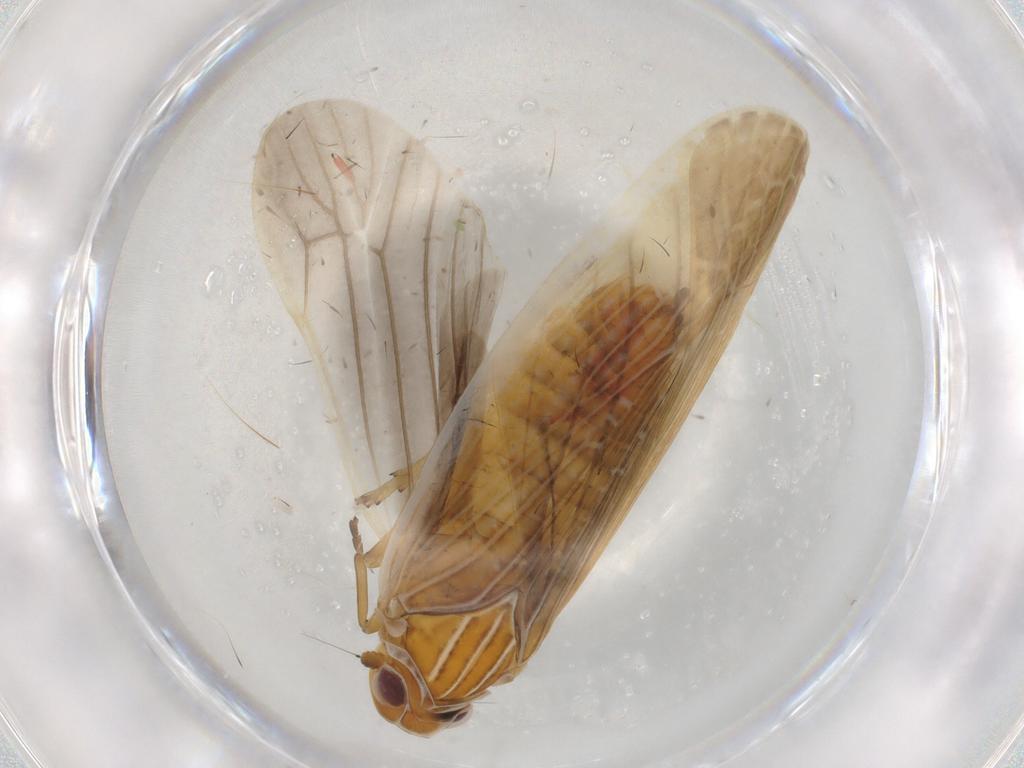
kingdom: Animalia
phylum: Arthropoda
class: Insecta
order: Hemiptera
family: Achilidae
